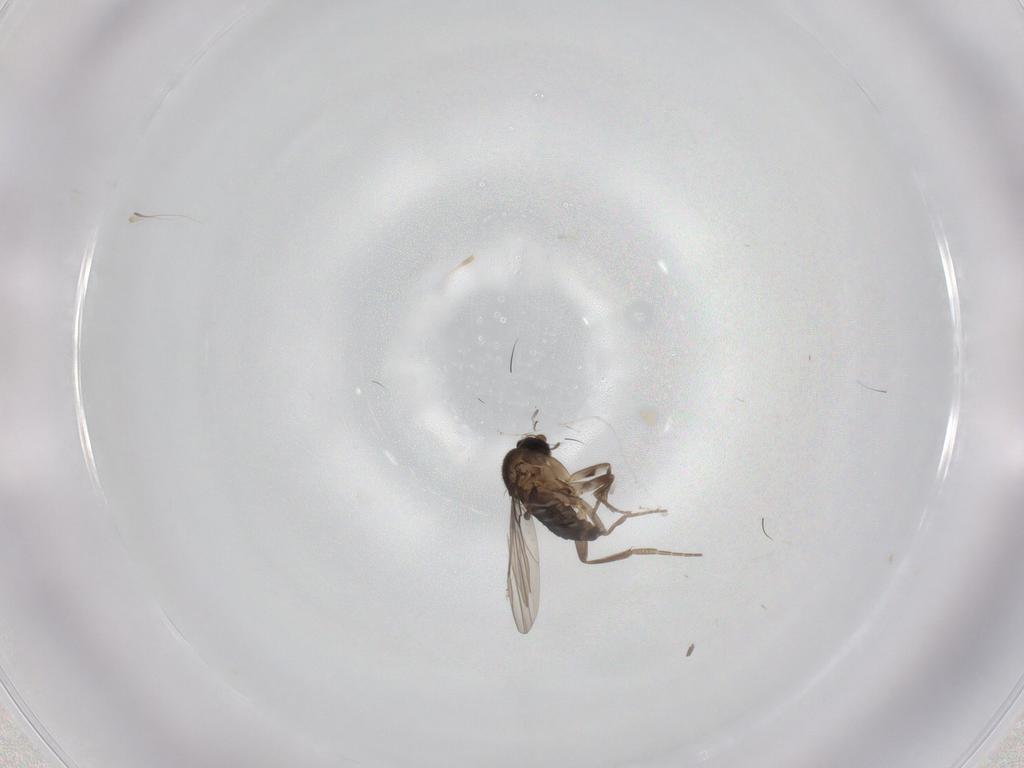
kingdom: Animalia
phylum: Arthropoda
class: Insecta
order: Diptera
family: Phoridae
